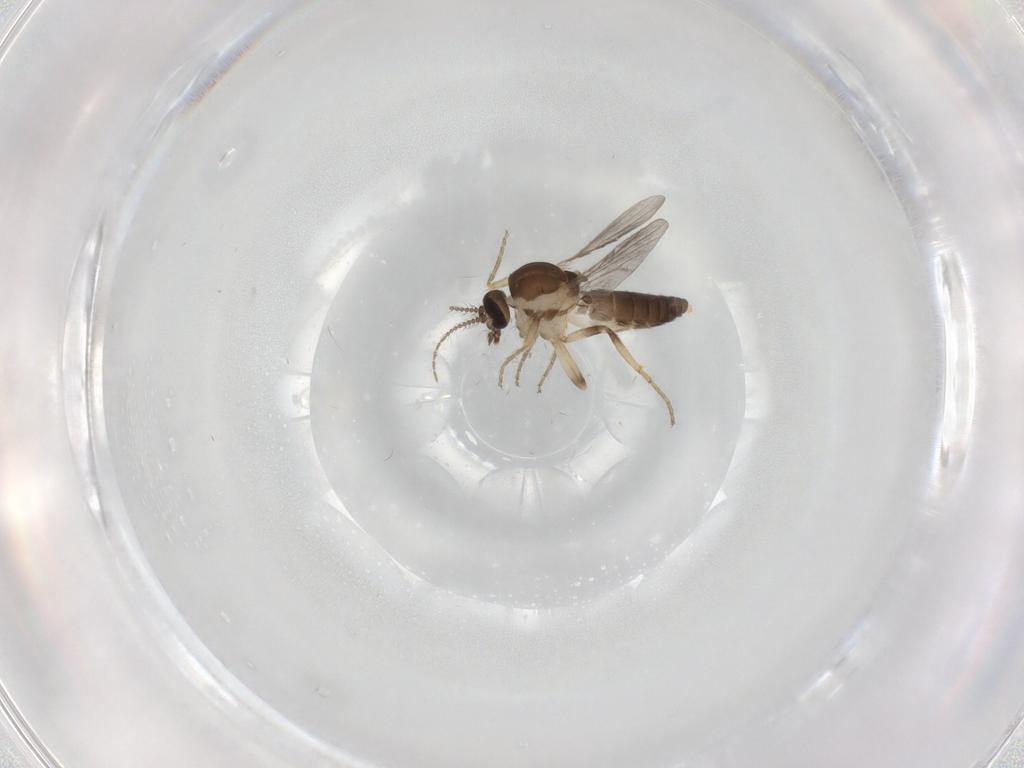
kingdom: Animalia
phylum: Arthropoda
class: Insecta
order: Diptera
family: Ceratopogonidae
